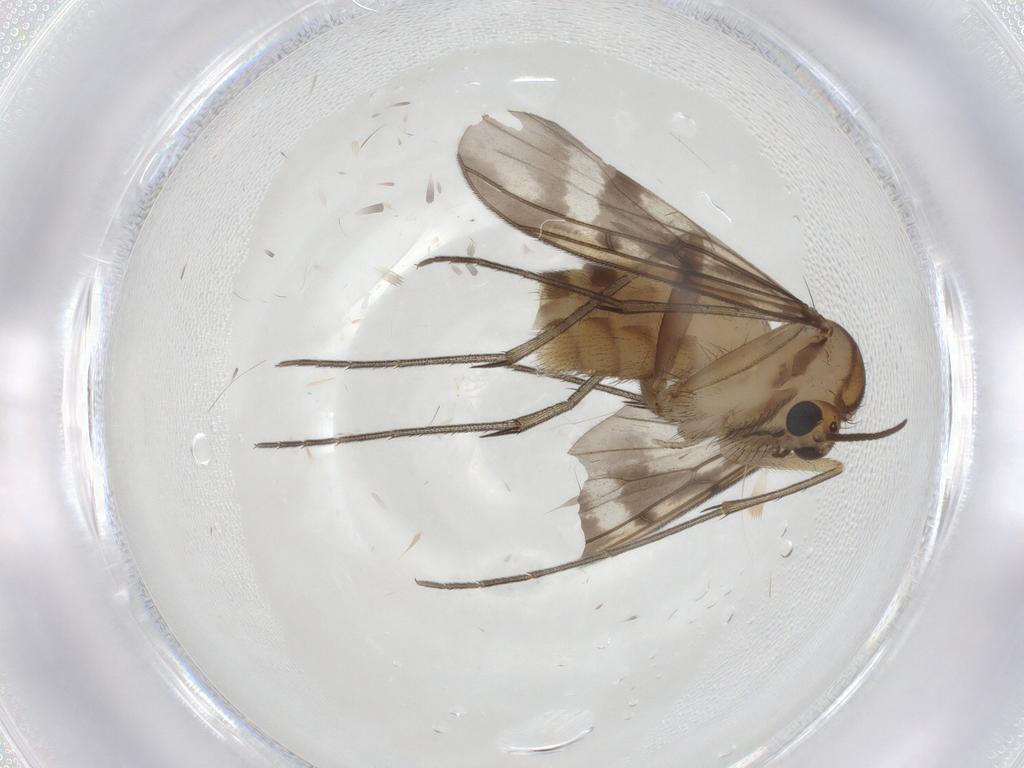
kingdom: Animalia
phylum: Arthropoda
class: Insecta
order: Diptera
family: Mycetophilidae
